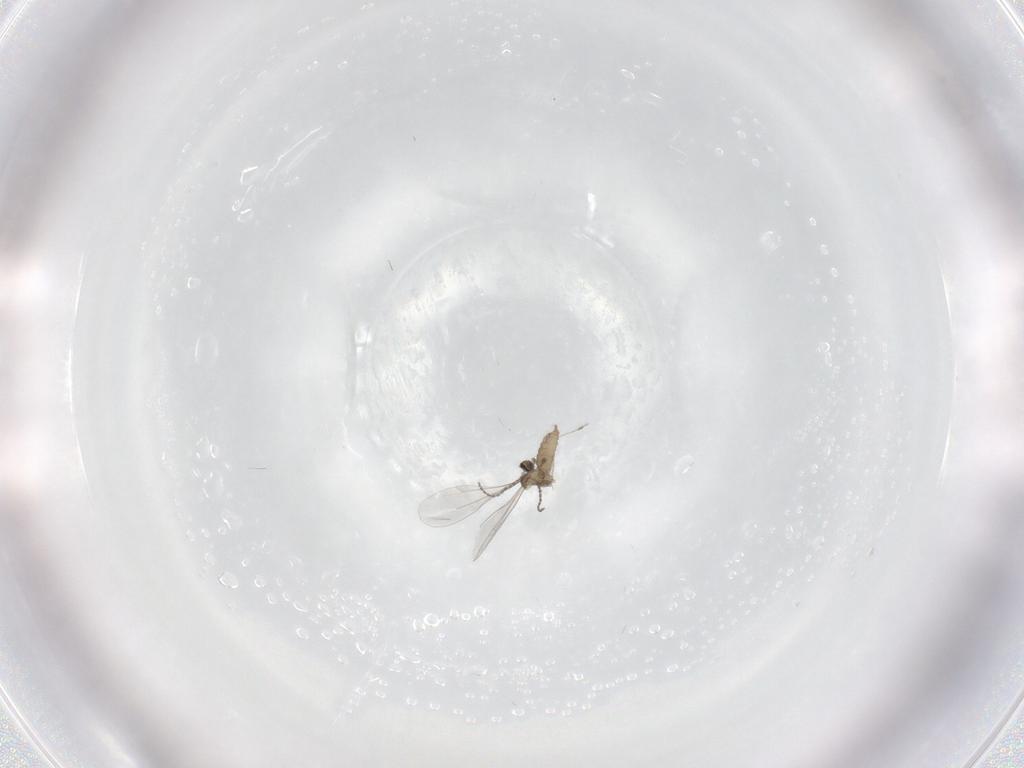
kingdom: Animalia
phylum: Arthropoda
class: Insecta
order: Diptera
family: Cecidomyiidae
